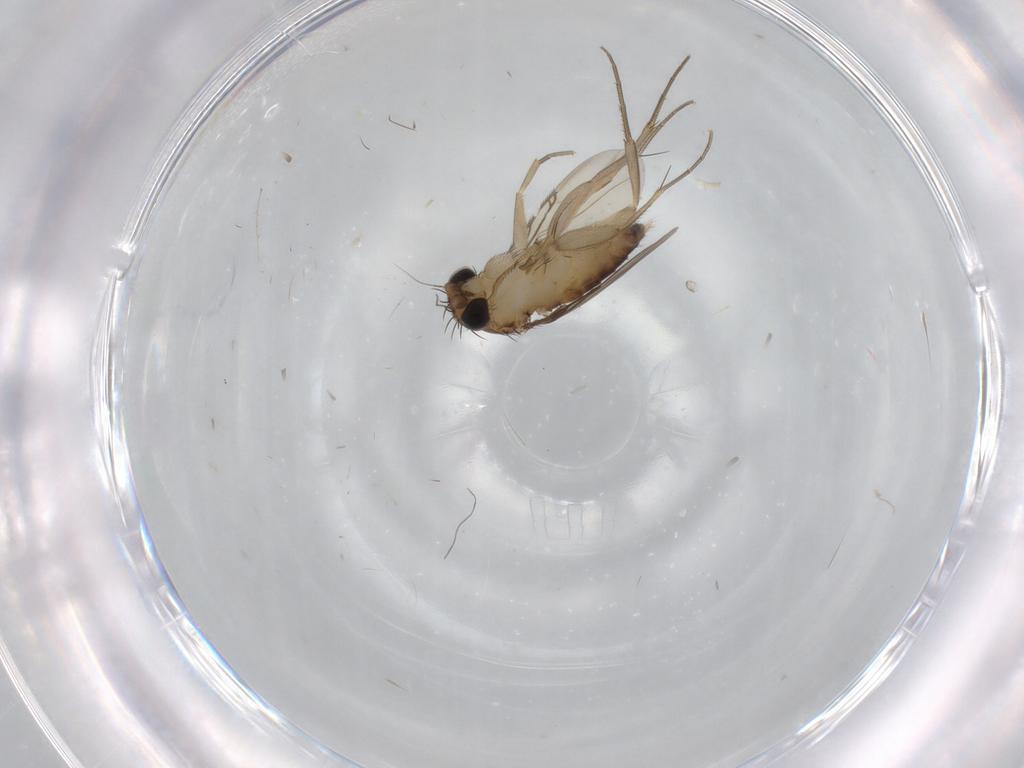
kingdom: Animalia
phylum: Arthropoda
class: Insecta
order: Diptera
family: Phoridae
